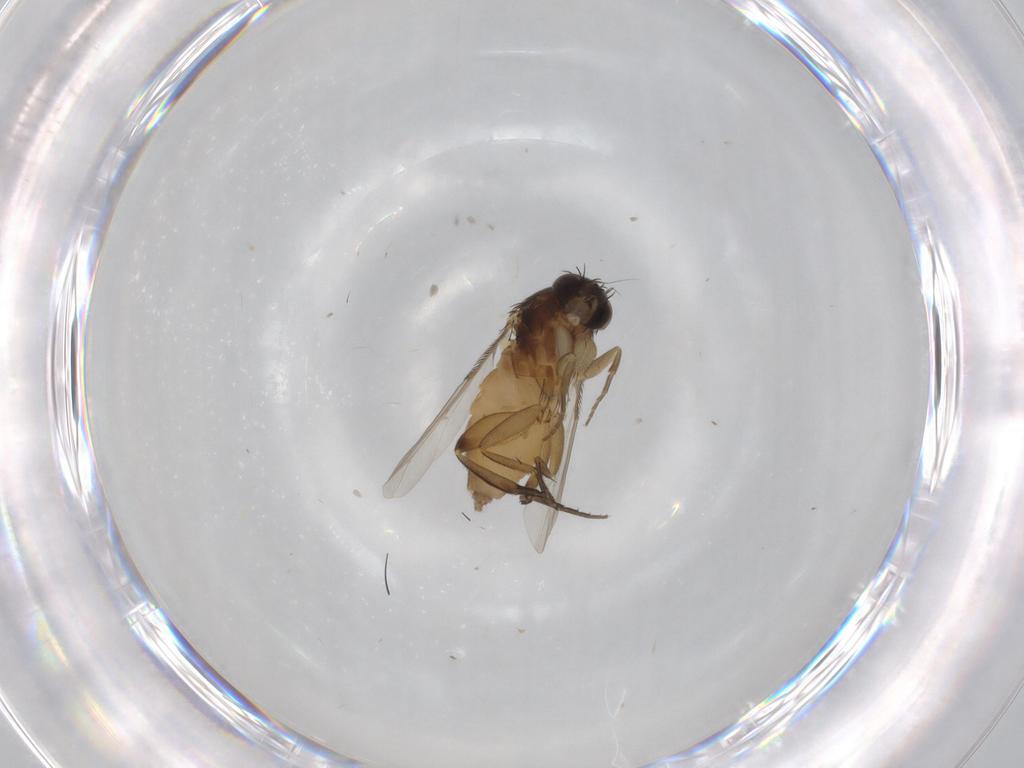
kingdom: Animalia
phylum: Arthropoda
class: Insecta
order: Diptera
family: Phoridae
